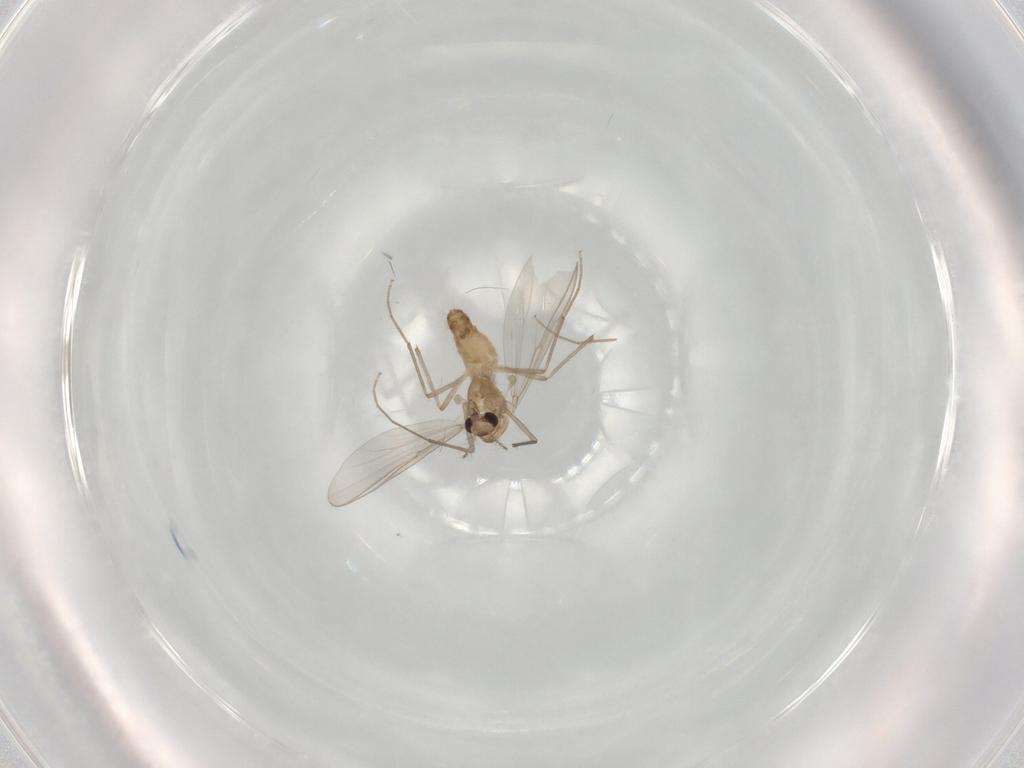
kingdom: Animalia
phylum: Arthropoda
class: Insecta
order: Diptera
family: Chironomidae
